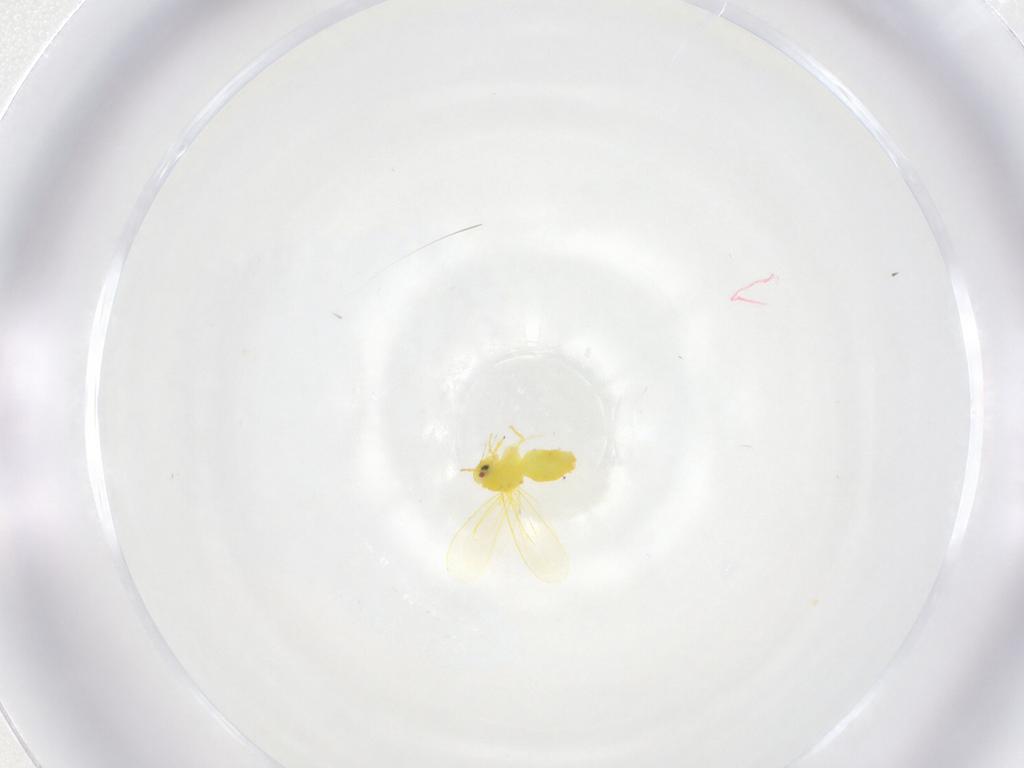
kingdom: Animalia
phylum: Arthropoda
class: Insecta
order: Hemiptera
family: Aleyrodidae
